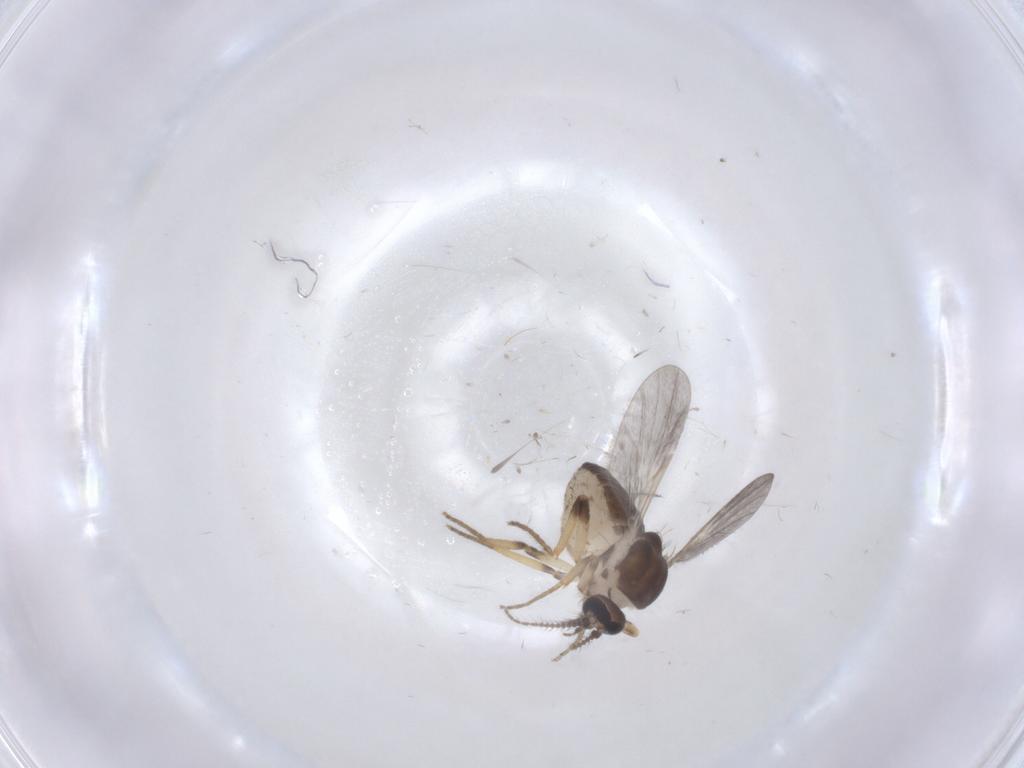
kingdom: Animalia
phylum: Arthropoda
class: Insecta
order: Diptera
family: Ceratopogonidae
